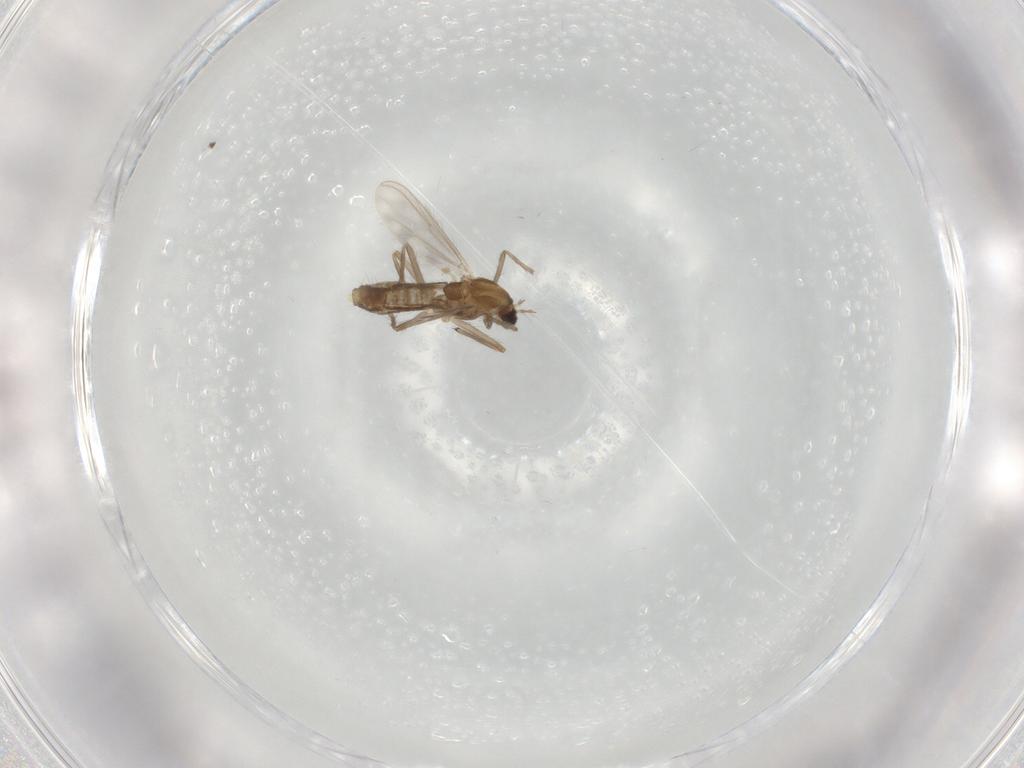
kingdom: Animalia
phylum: Arthropoda
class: Insecta
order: Diptera
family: Chironomidae
